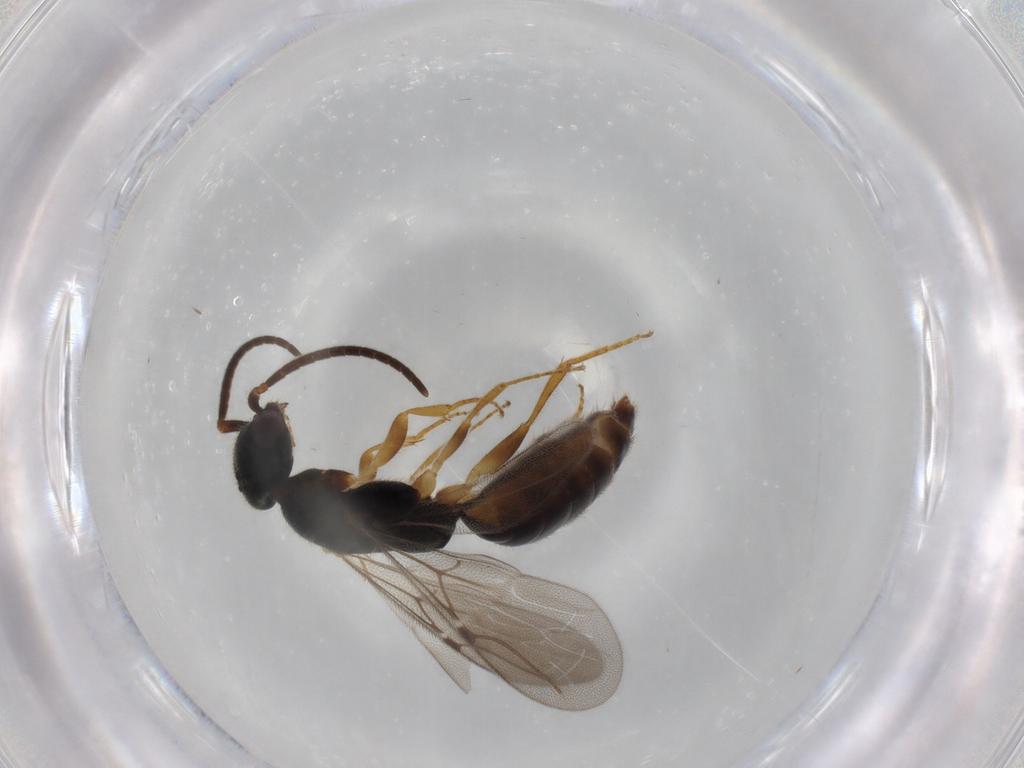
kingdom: Animalia
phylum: Arthropoda
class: Insecta
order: Hymenoptera
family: Bethylidae
